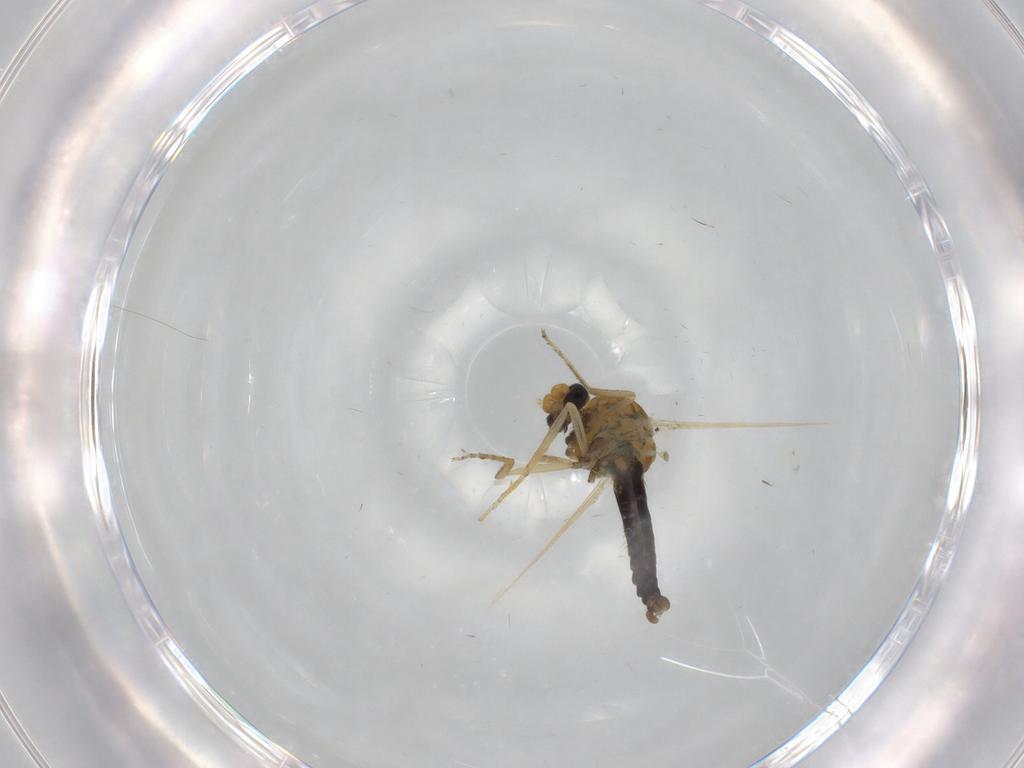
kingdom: Animalia
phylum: Arthropoda
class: Insecta
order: Diptera
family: Ceratopogonidae
